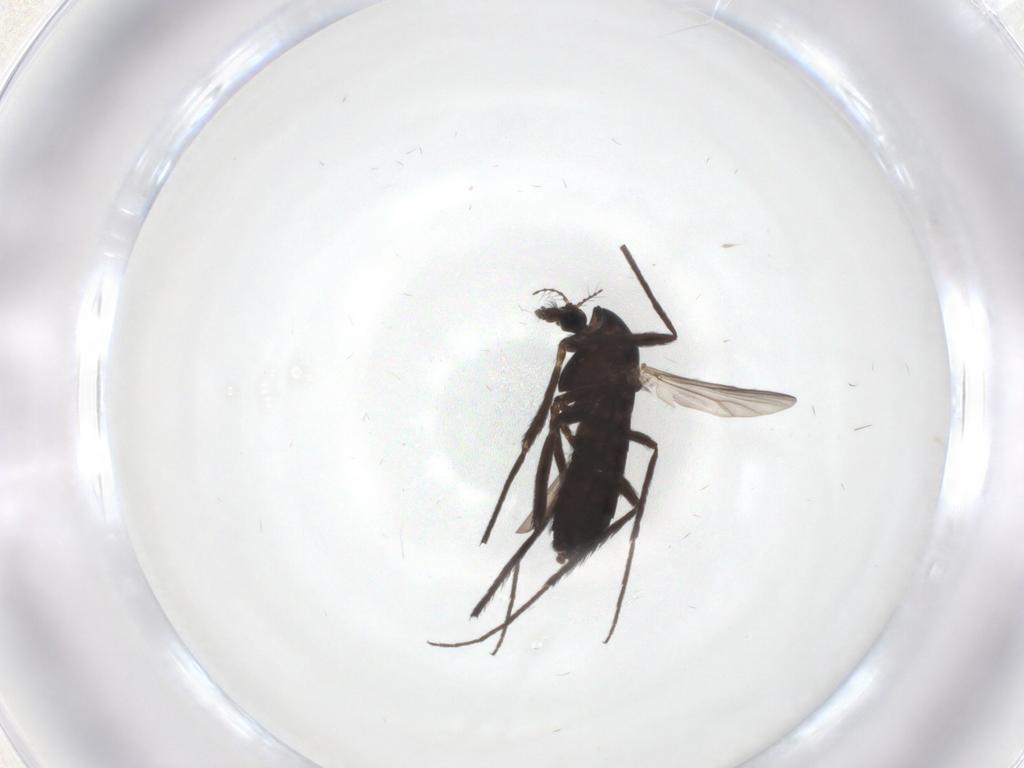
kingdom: Animalia
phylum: Arthropoda
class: Insecta
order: Diptera
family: Chironomidae
